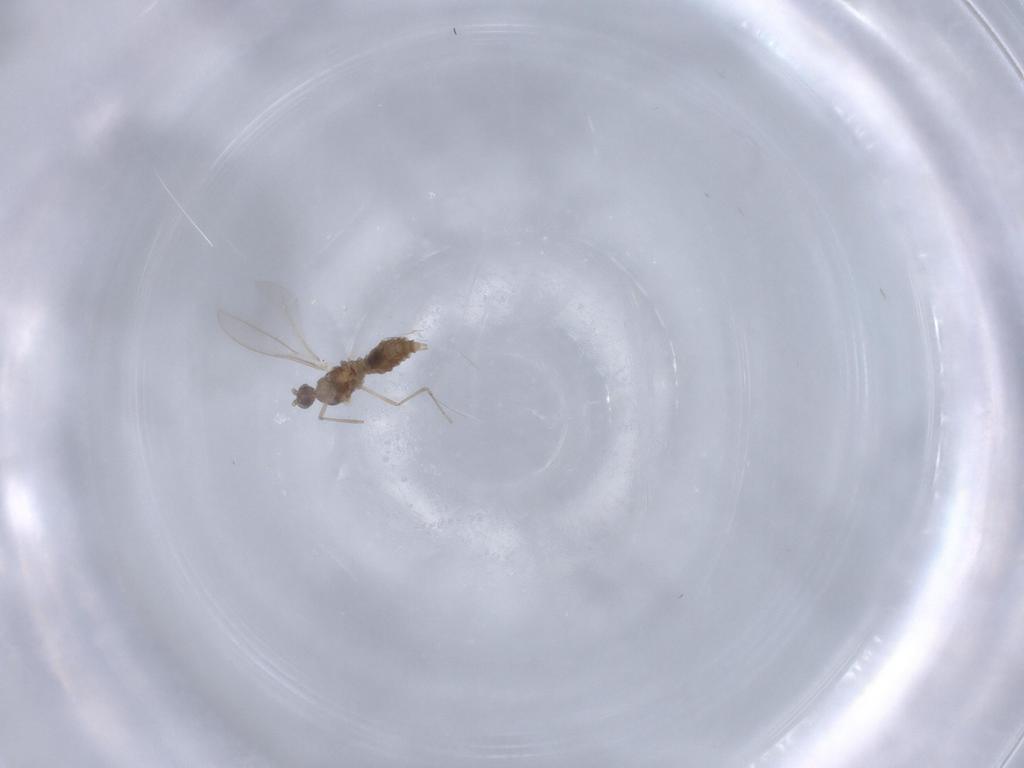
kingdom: Animalia
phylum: Arthropoda
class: Insecta
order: Diptera
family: Cecidomyiidae
